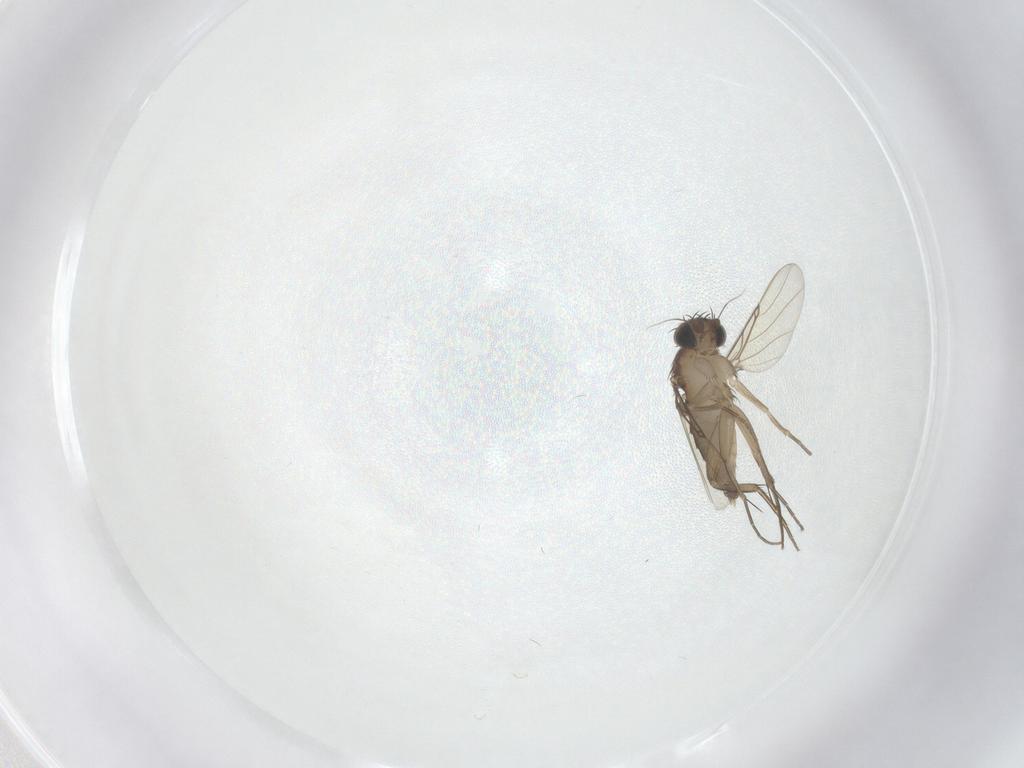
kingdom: Animalia
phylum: Arthropoda
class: Insecta
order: Diptera
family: Phoridae
